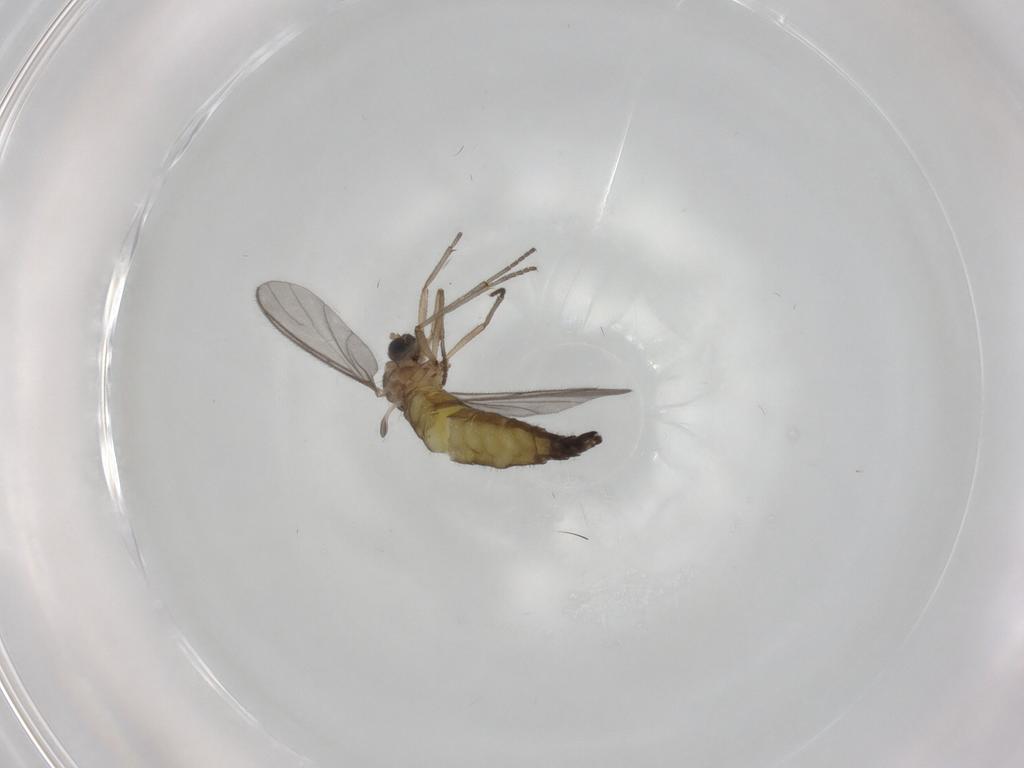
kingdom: Animalia
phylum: Arthropoda
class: Insecta
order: Diptera
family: Sciaridae
